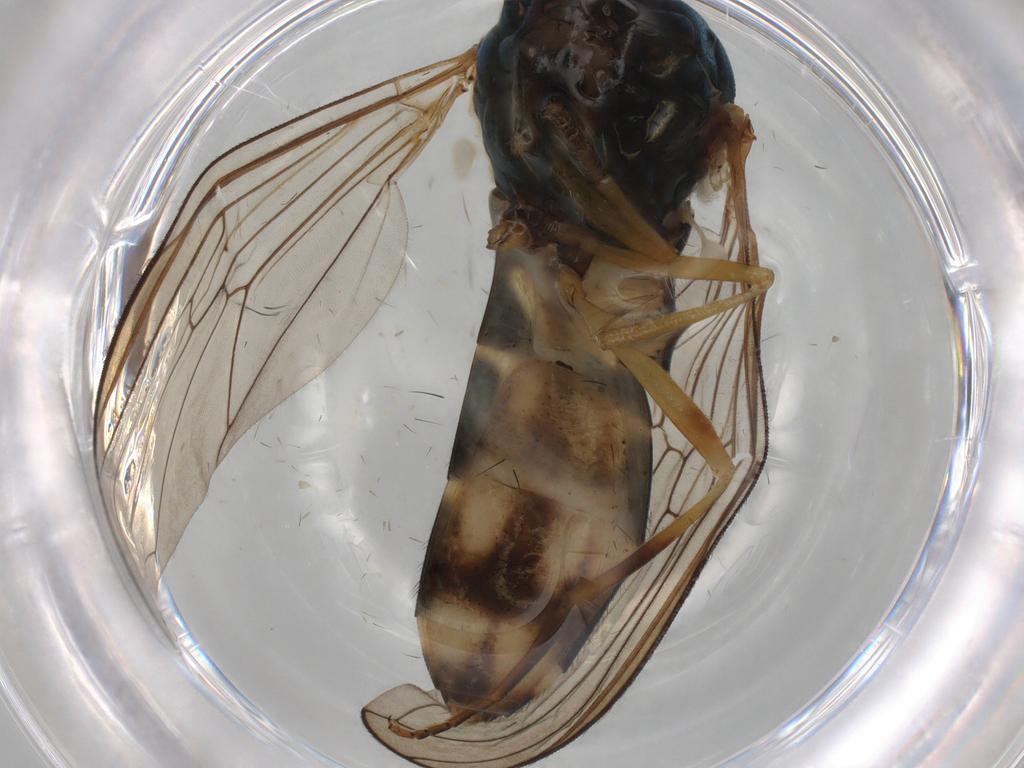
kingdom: Animalia
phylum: Arthropoda
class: Insecta
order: Diptera
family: Syrphidae
